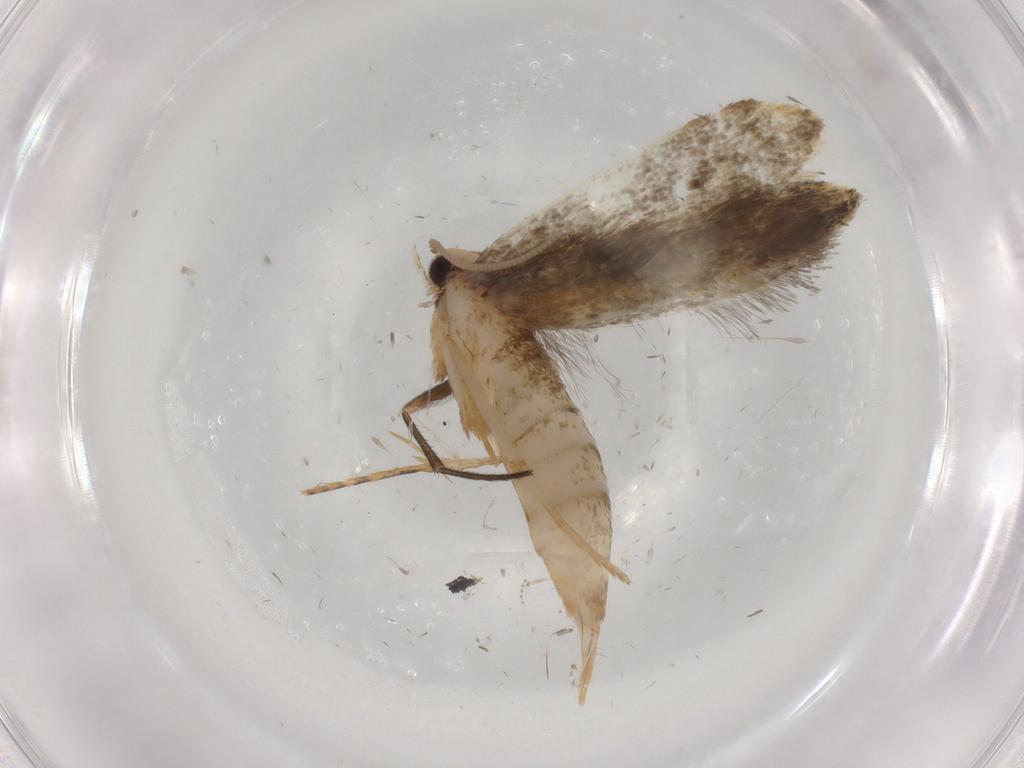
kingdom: Animalia
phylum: Arthropoda
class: Insecta
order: Lepidoptera
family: Tineidae
